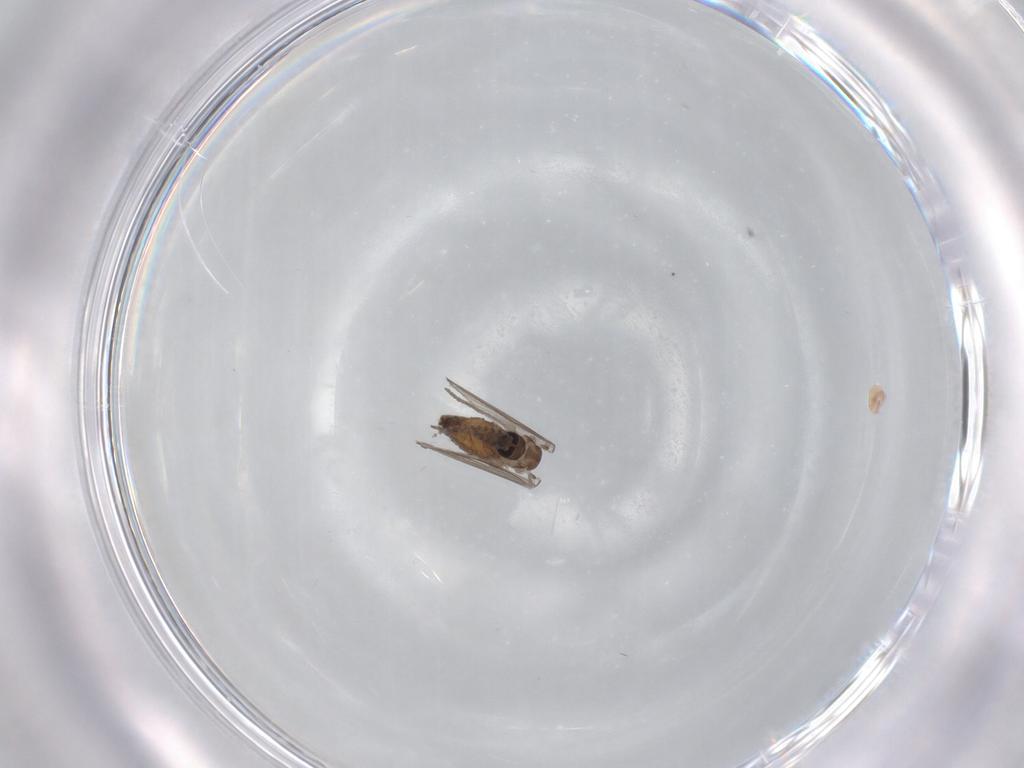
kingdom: Animalia
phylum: Arthropoda
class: Insecta
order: Diptera
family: Psychodidae
